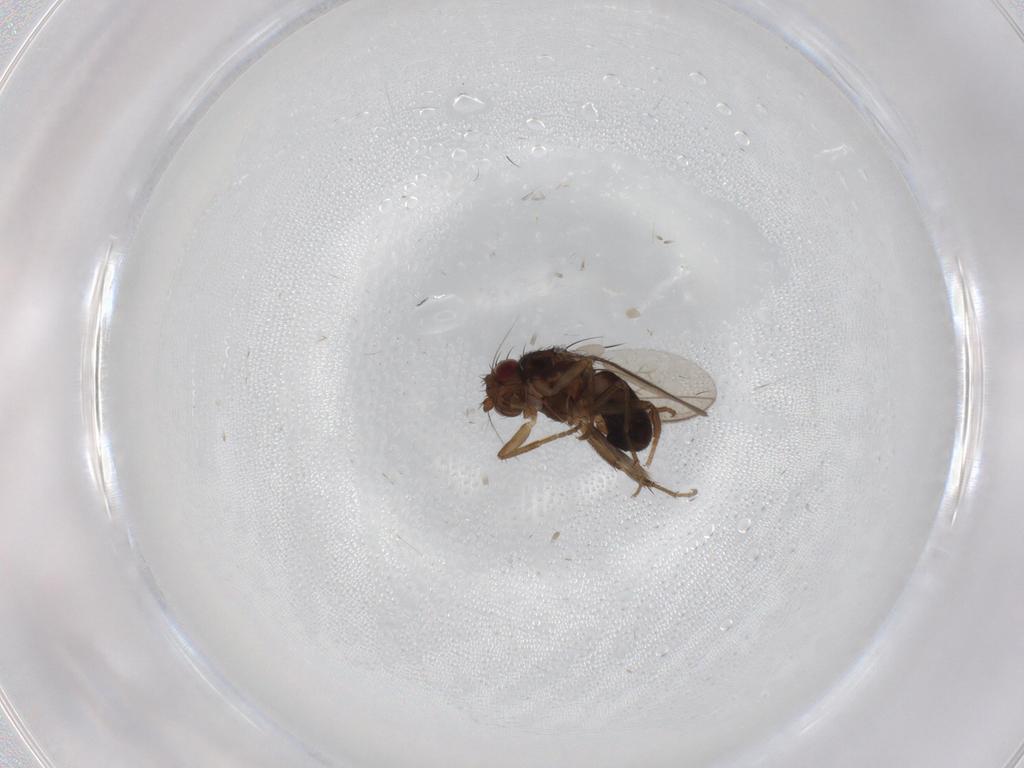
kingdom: Animalia
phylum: Arthropoda
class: Insecta
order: Diptera
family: Sphaeroceridae
